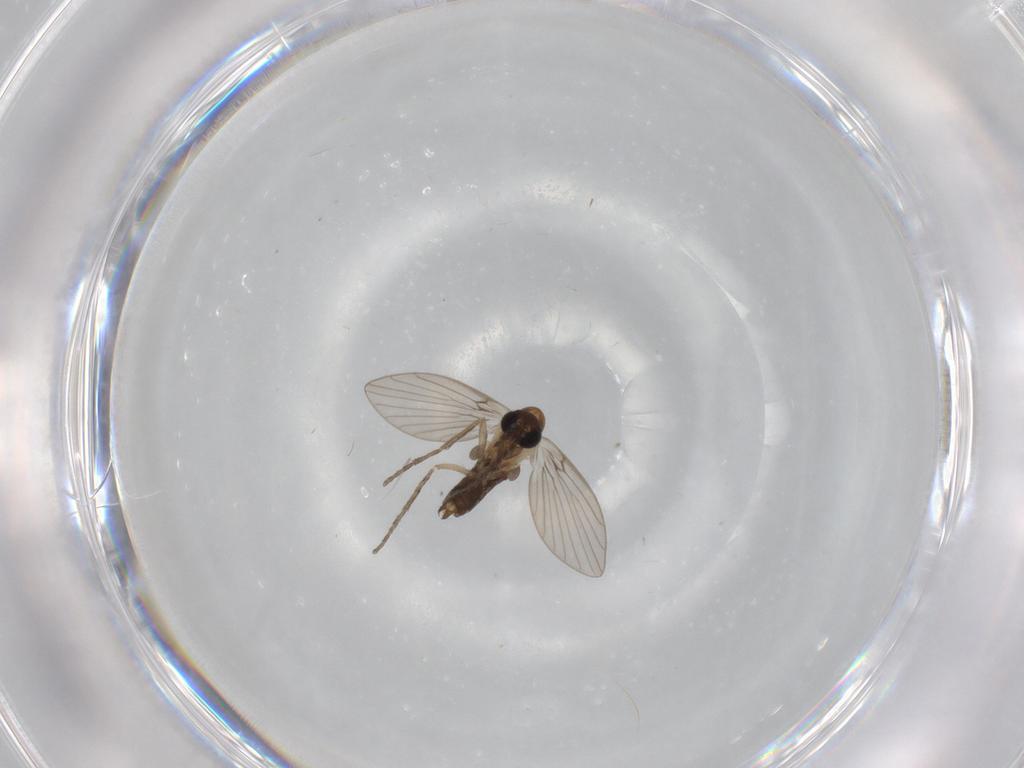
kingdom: Animalia
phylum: Arthropoda
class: Insecta
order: Diptera
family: Psychodidae
